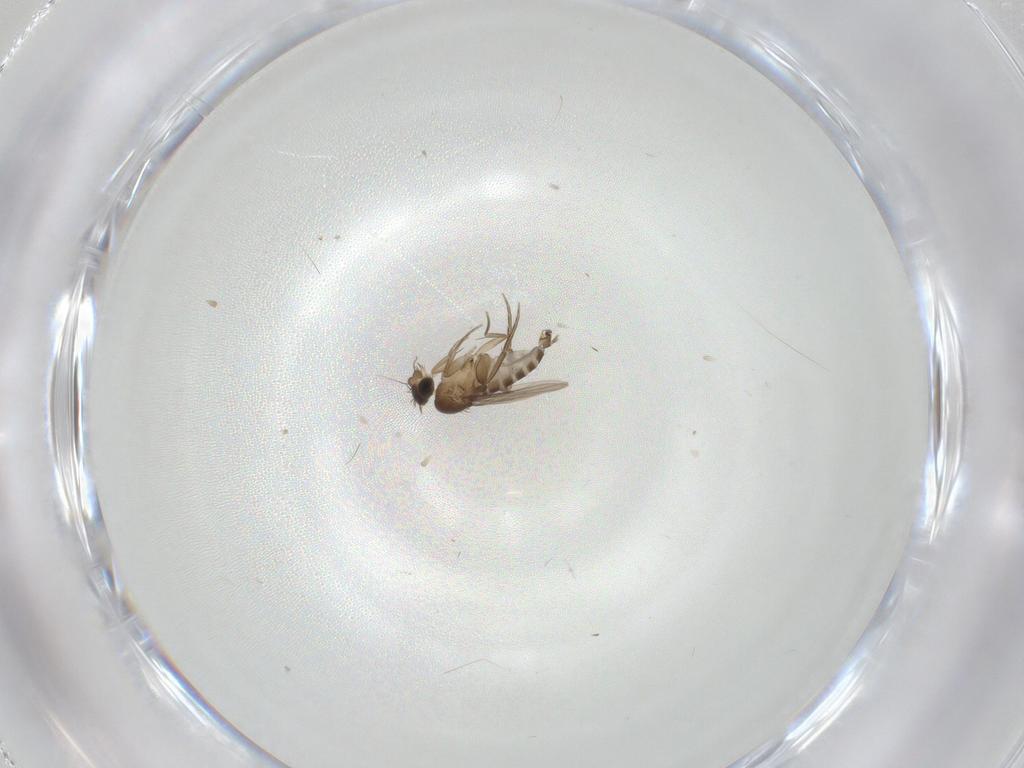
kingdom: Animalia
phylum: Arthropoda
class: Insecta
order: Diptera
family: Phoridae
